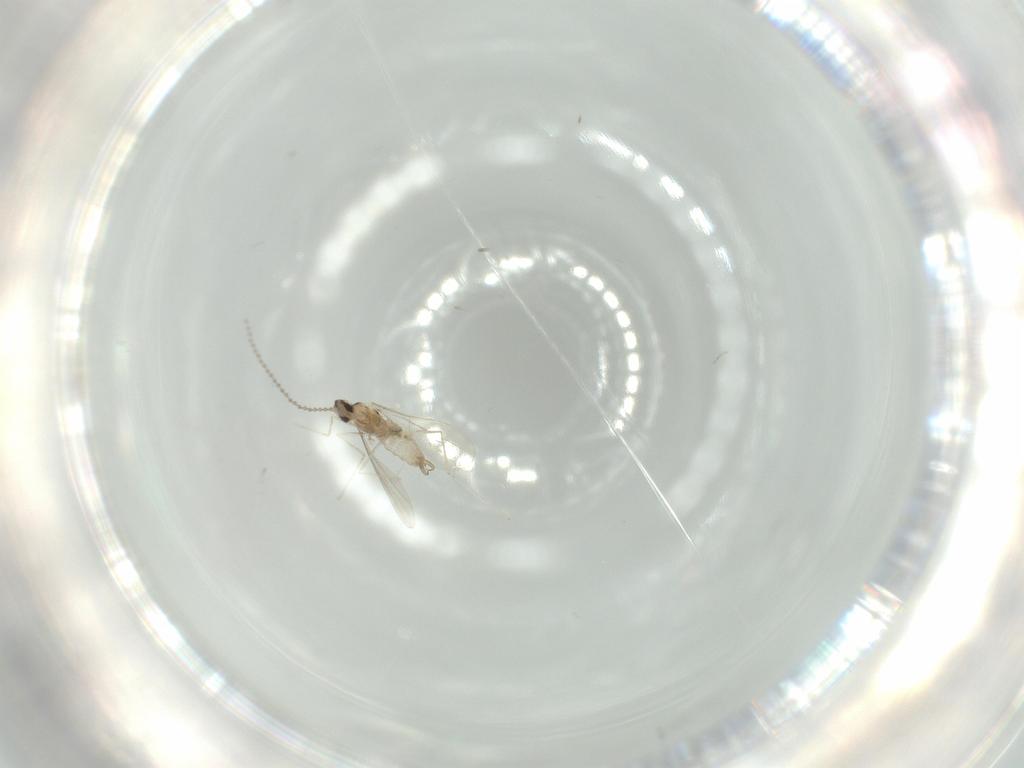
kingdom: Animalia
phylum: Arthropoda
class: Insecta
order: Diptera
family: Cecidomyiidae
